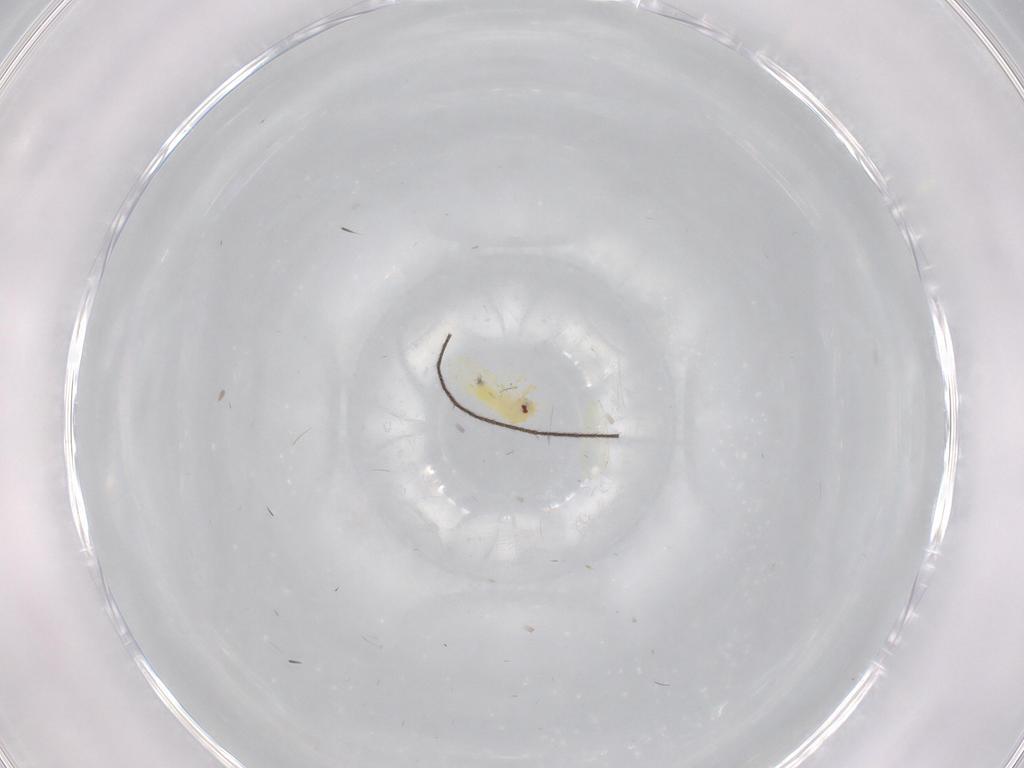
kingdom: Animalia
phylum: Arthropoda
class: Insecta
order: Hemiptera
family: Aleyrodidae
